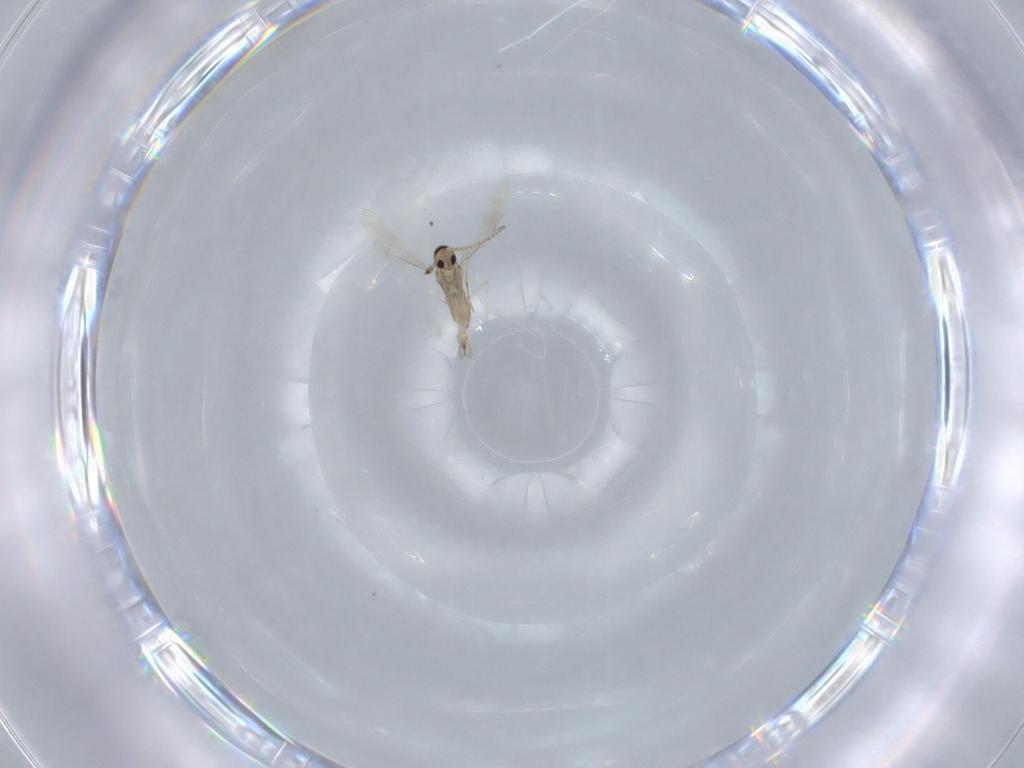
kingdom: Animalia
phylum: Arthropoda
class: Insecta
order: Diptera
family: Cecidomyiidae
